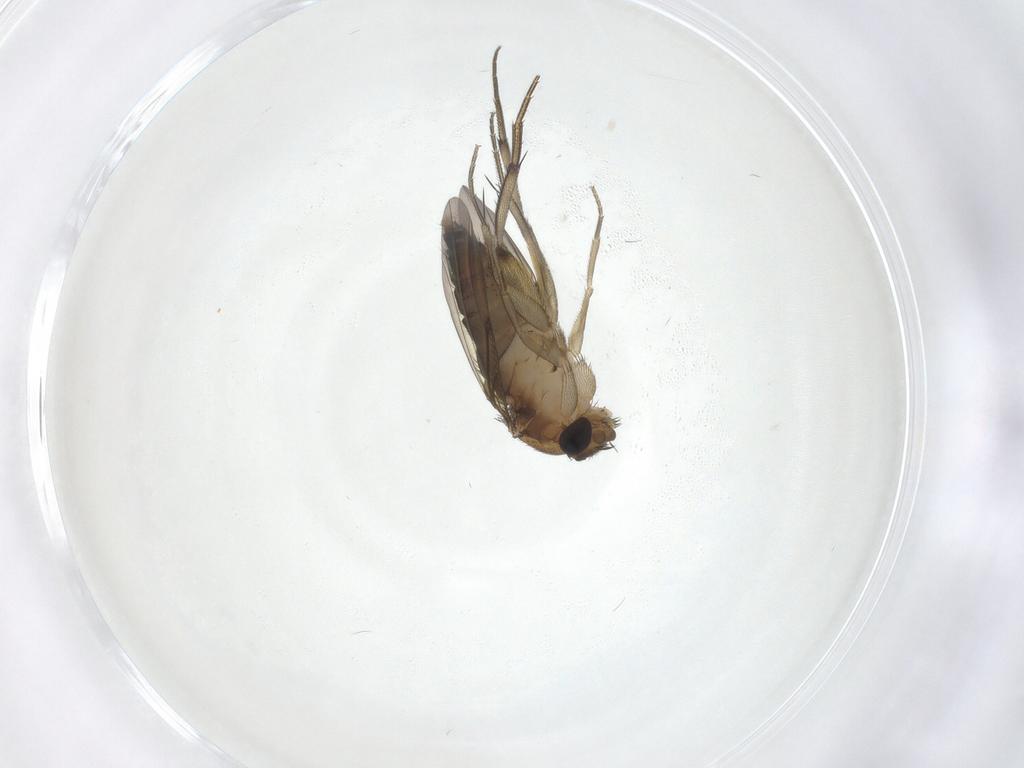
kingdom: Animalia
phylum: Arthropoda
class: Insecta
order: Diptera
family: Phoridae
